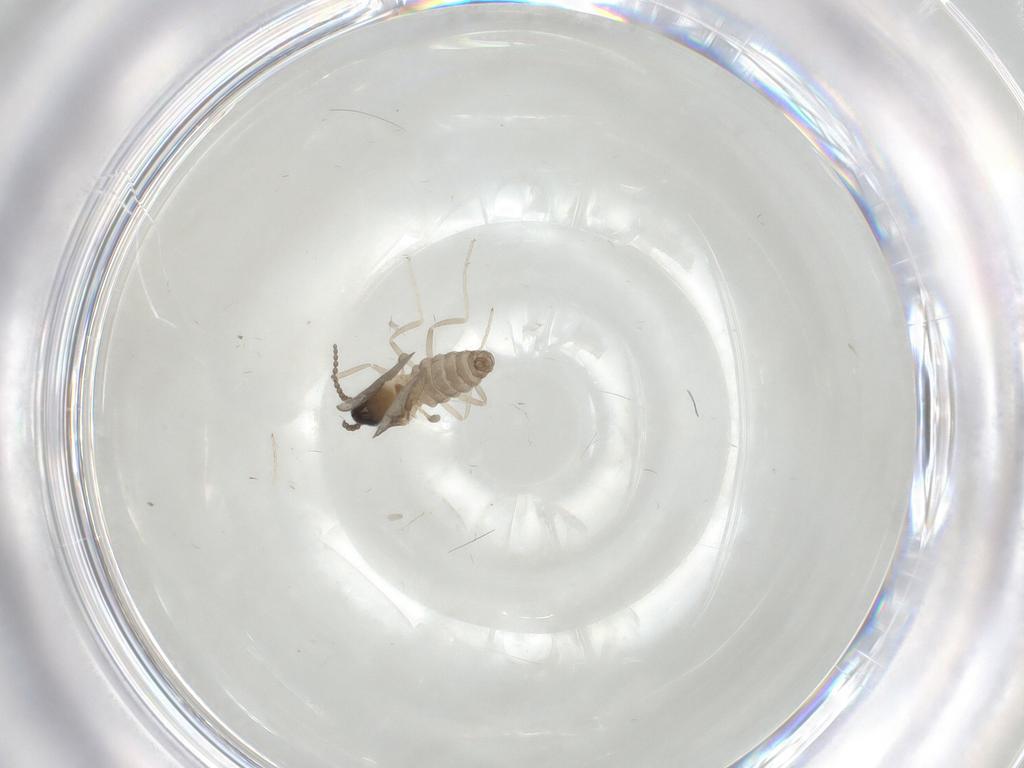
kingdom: Animalia
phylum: Arthropoda
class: Insecta
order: Diptera
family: Cecidomyiidae
